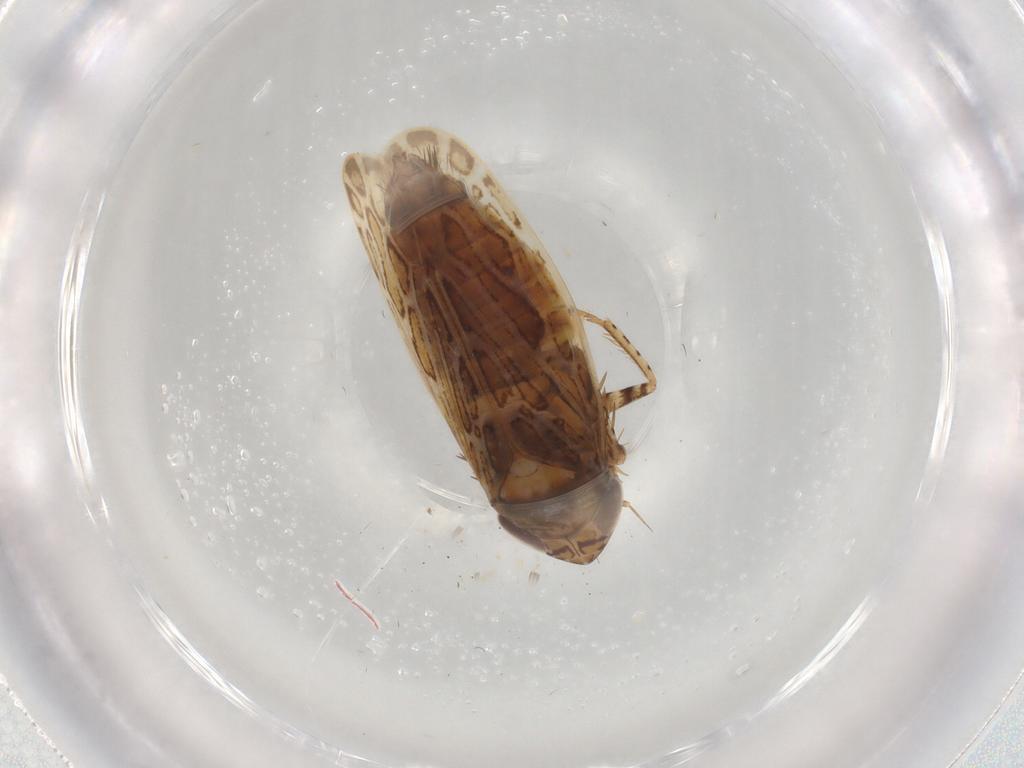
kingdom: Animalia
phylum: Arthropoda
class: Insecta
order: Hemiptera
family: Cicadellidae
